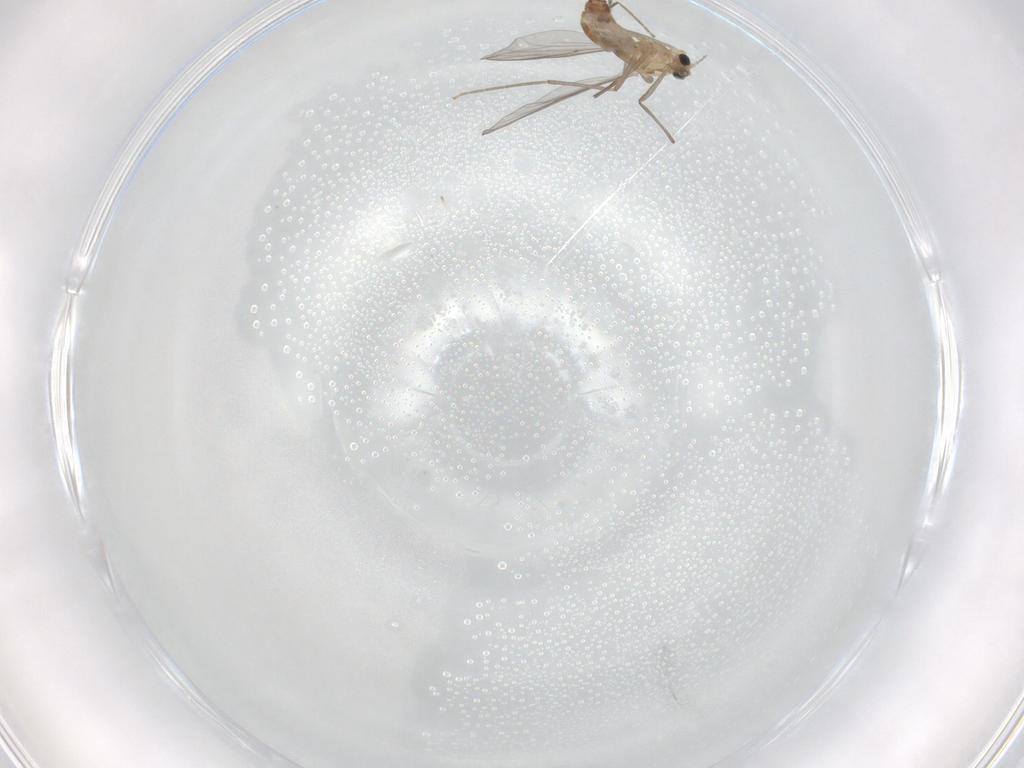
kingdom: Animalia
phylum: Arthropoda
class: Insecta
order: Diptera
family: Chironomidae
